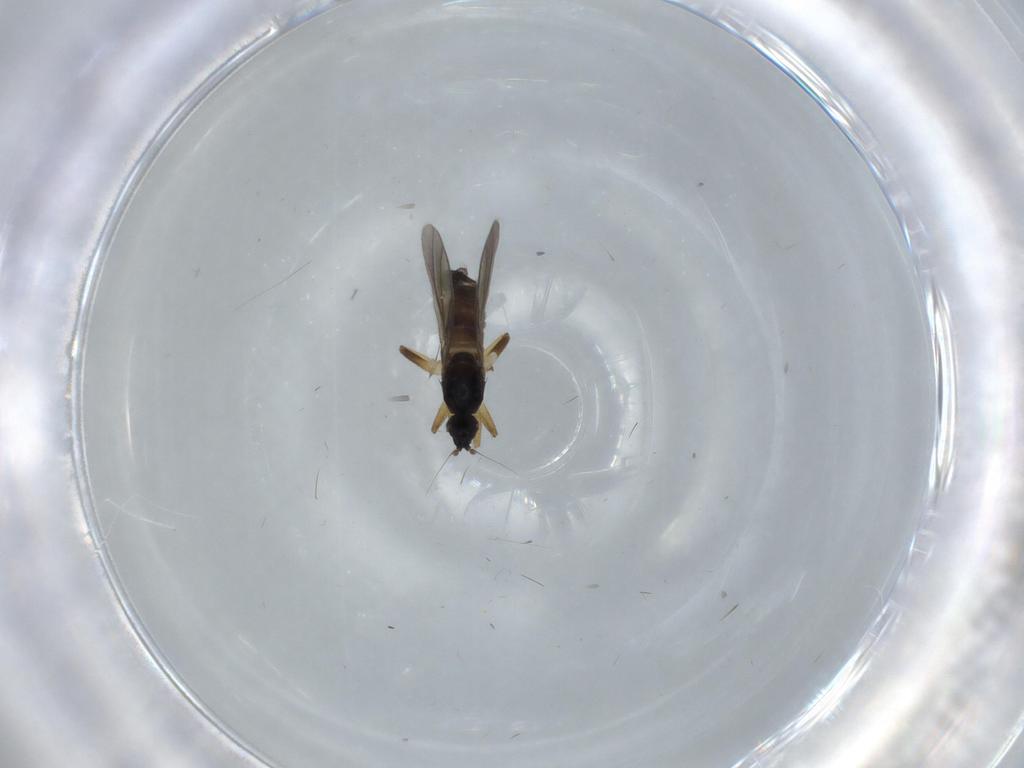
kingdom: Animalia
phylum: Arthropoda
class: Insecta
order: Diptera
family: Hybotidae
